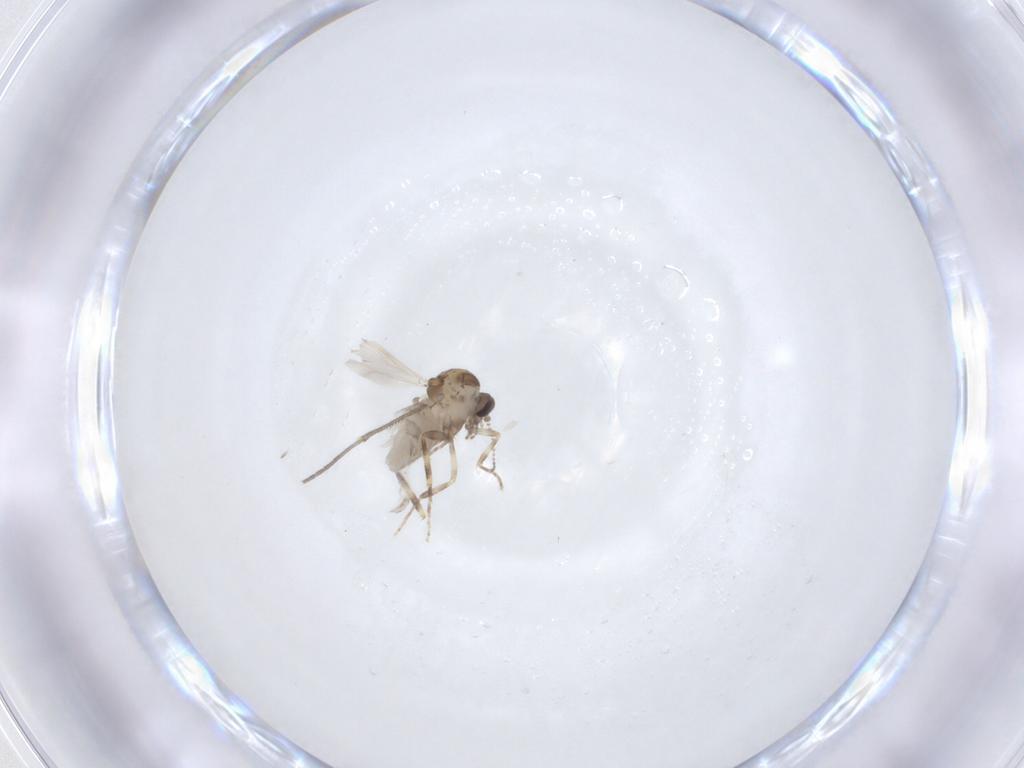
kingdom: Animalia
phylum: Arthropoda
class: Insecta
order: Diptera
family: Ceratopogonidae
